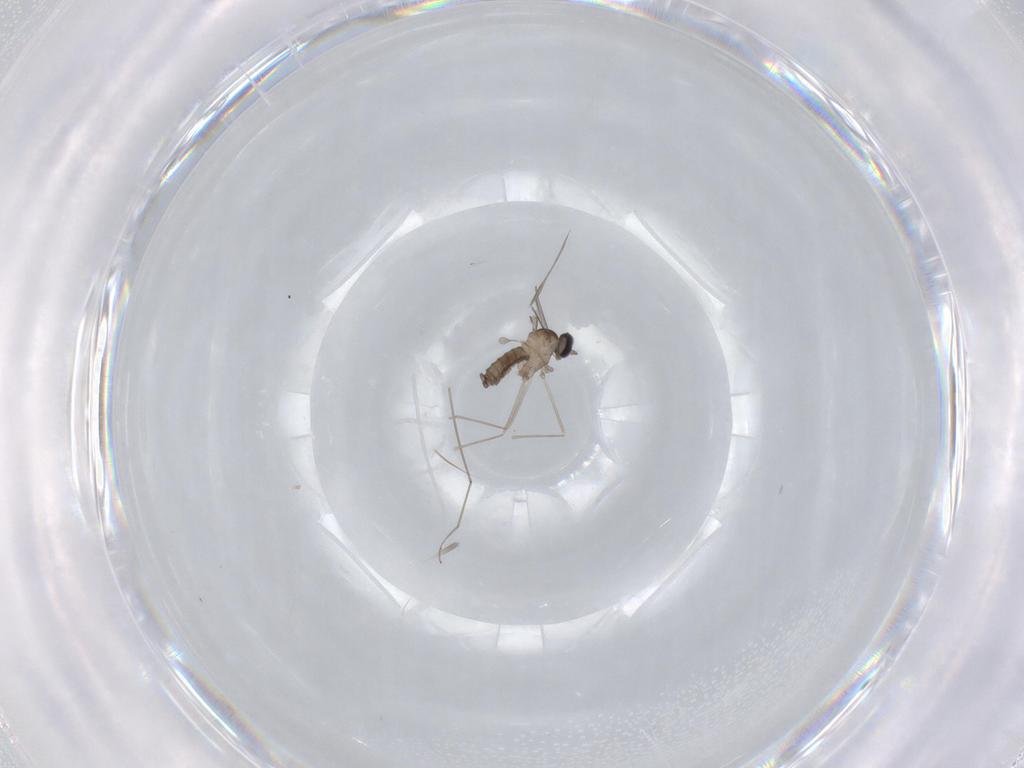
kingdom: Animalia
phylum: Arthropoda
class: Insecta
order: Diptera
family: Cecidomyiidae
